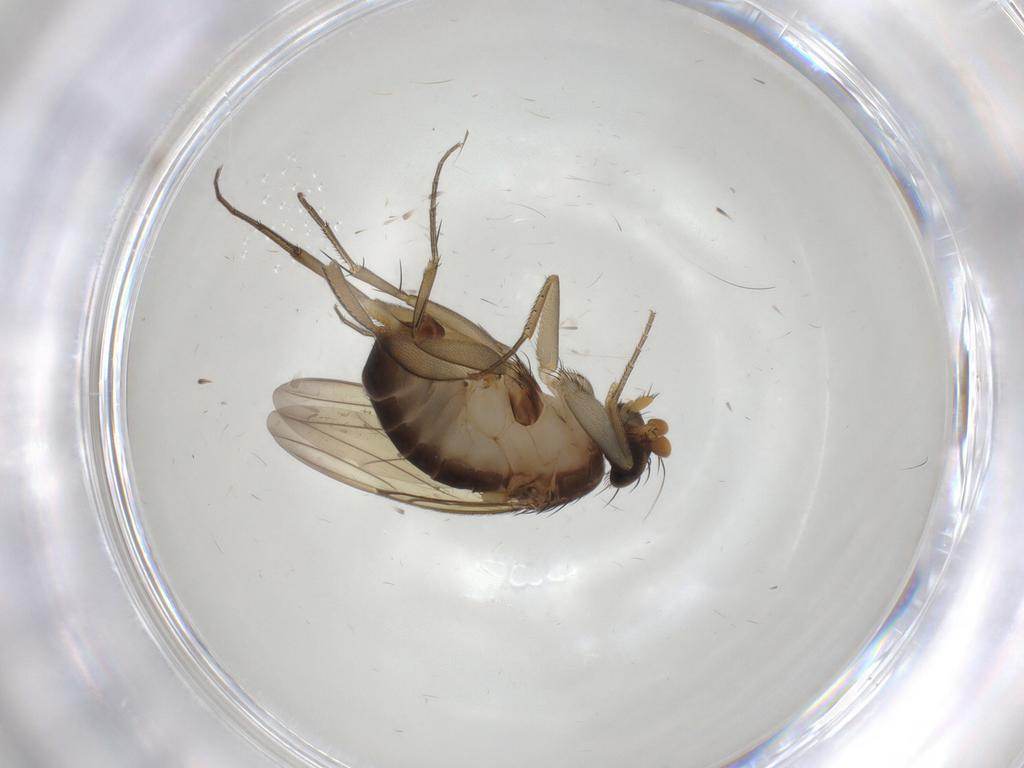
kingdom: Animalia
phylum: Arthropoda
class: Insecta
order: Diptera
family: Phoridae
